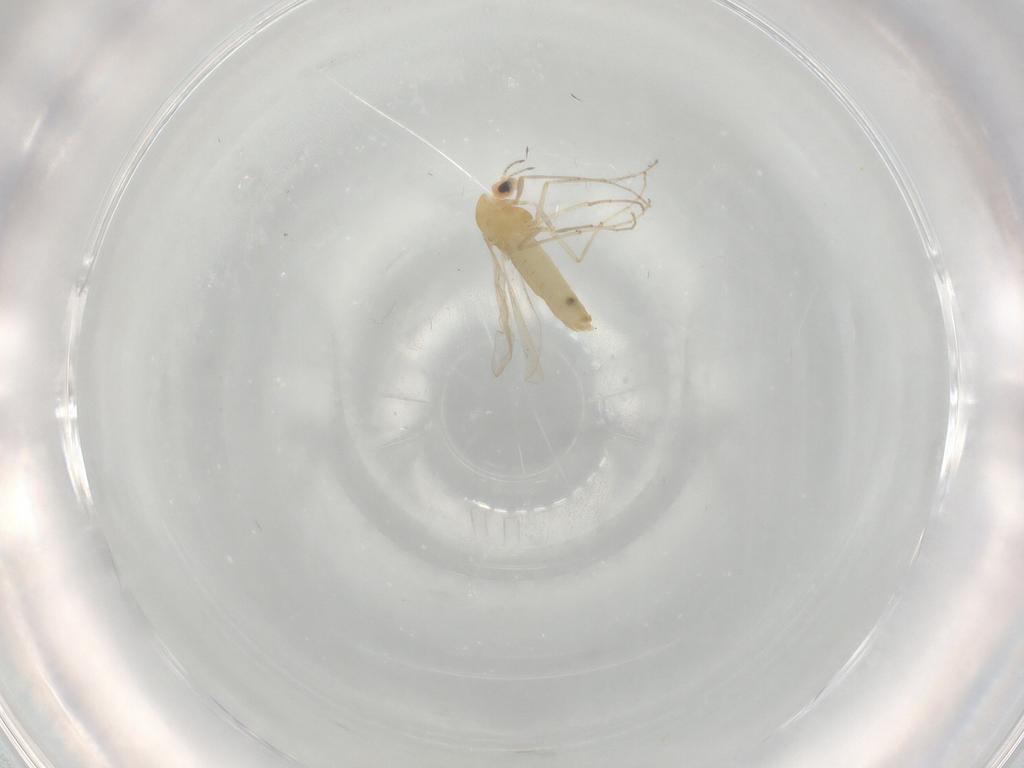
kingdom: Animalia
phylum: Arthropoda
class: Insecta
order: Diptera
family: Chironomidae
